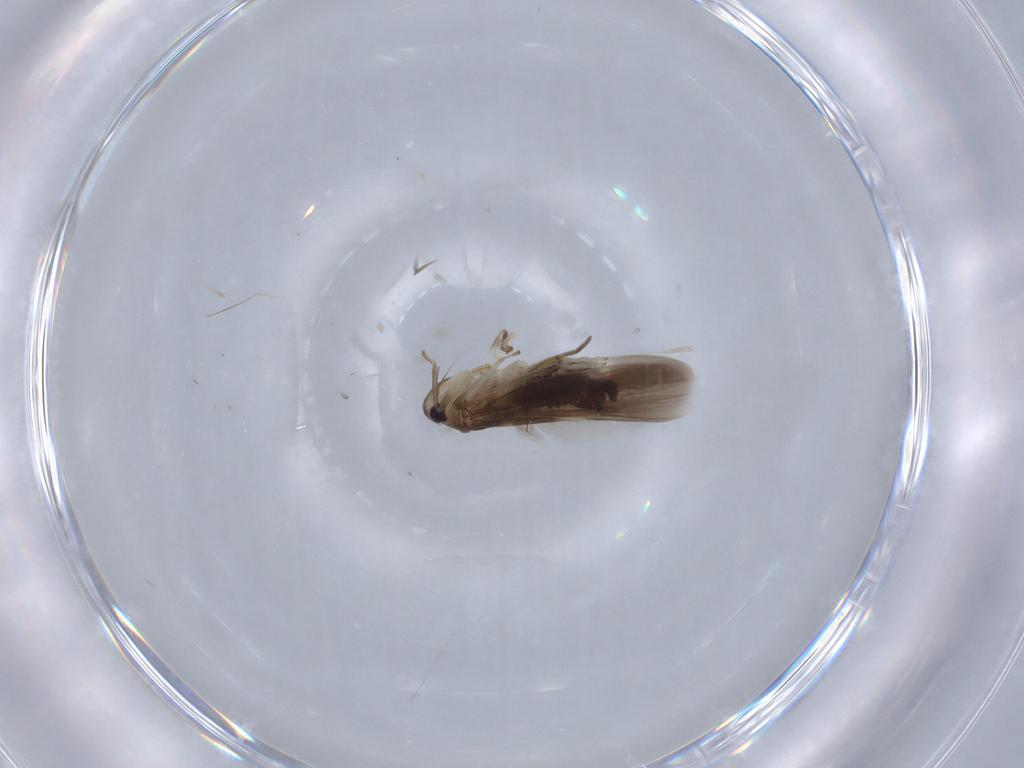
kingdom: Animalia
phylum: Arthropoda
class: Insecta
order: Hemiptera
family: Cicadellidae
